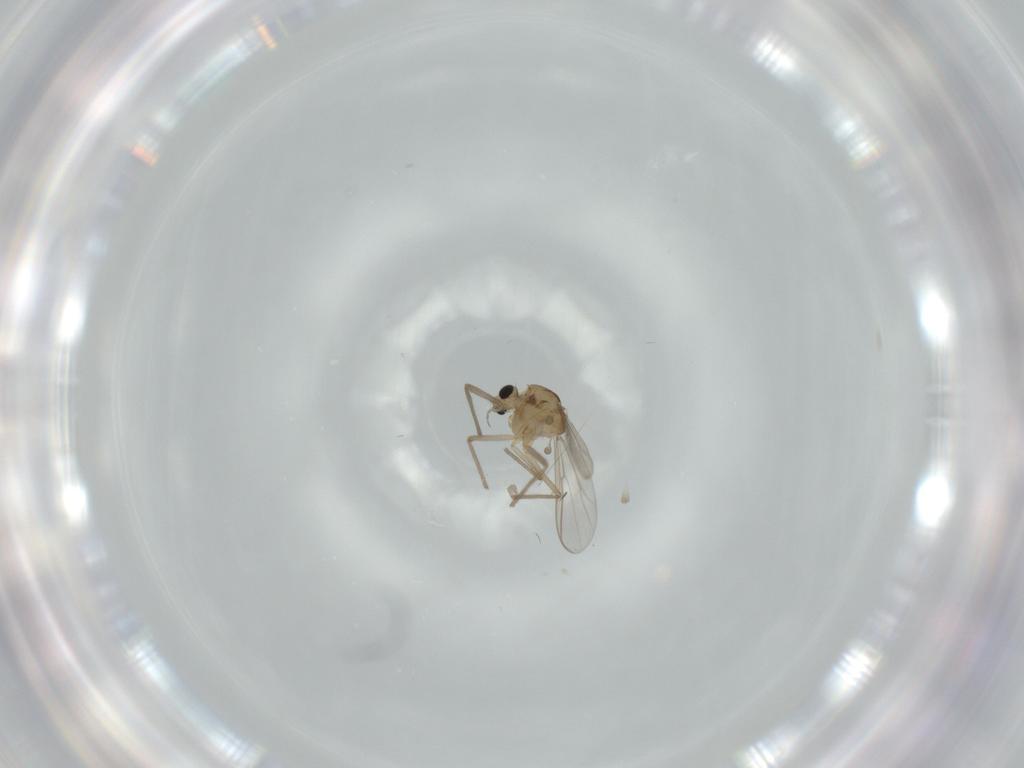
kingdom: Animalia
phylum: Arthropoda
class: Insecta
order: Diptera
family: Chironomidae
